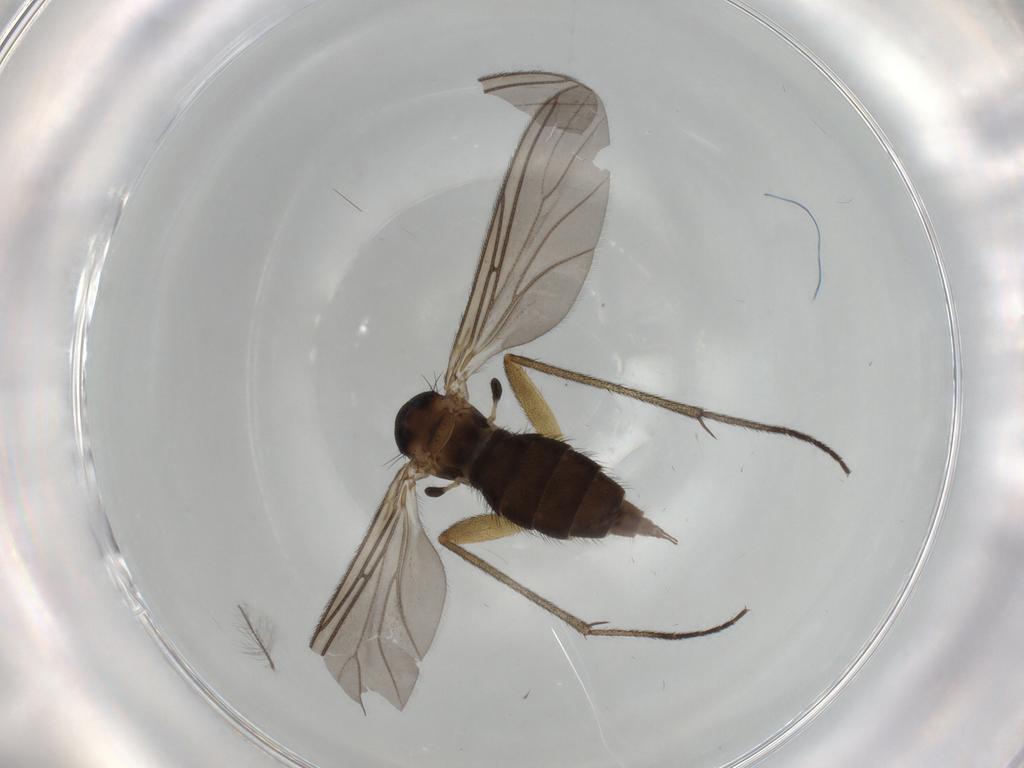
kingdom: Animalia
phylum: Arthropoda
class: Insecta
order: Diptera
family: Sciaridae
